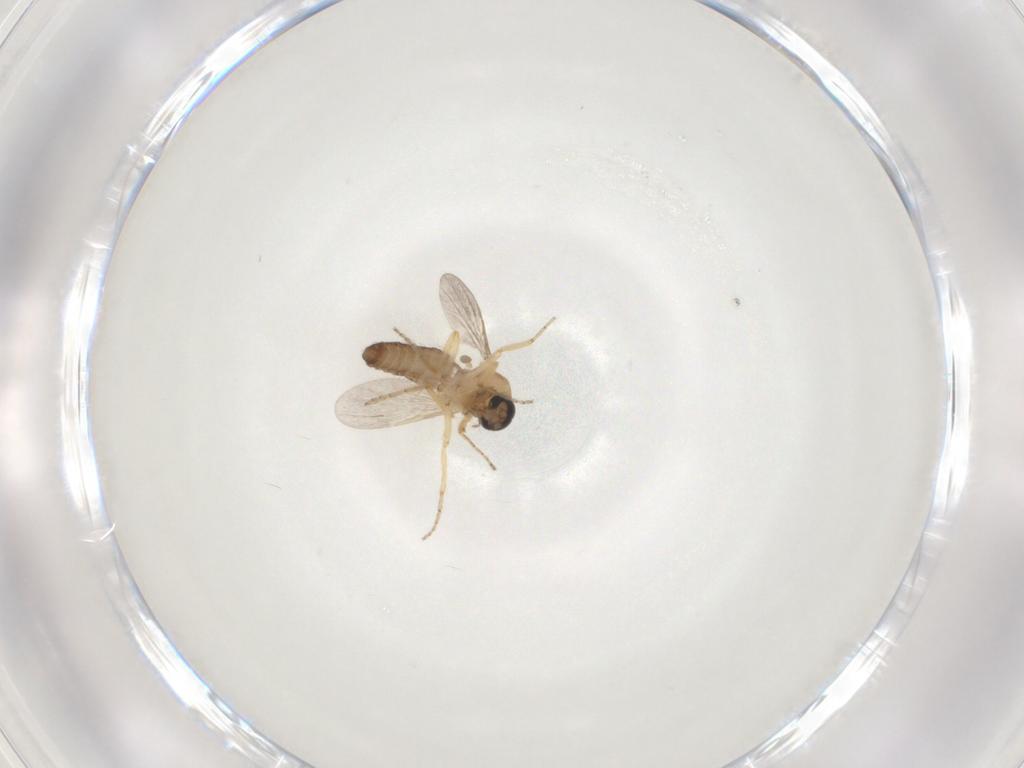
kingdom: Animalia
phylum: Arthropoda
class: Insecta
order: Diptera
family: Ceratopogonidae
